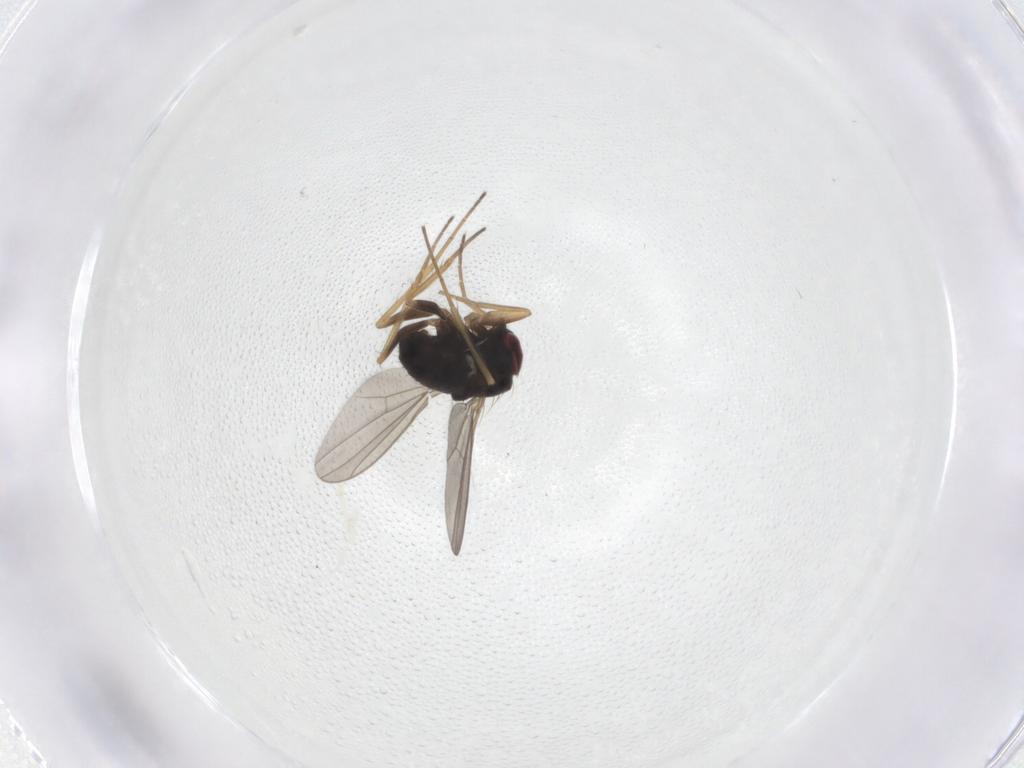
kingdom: Animalia
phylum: Arthropoda
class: Insecta
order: Diptera
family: Dolichopodidae
